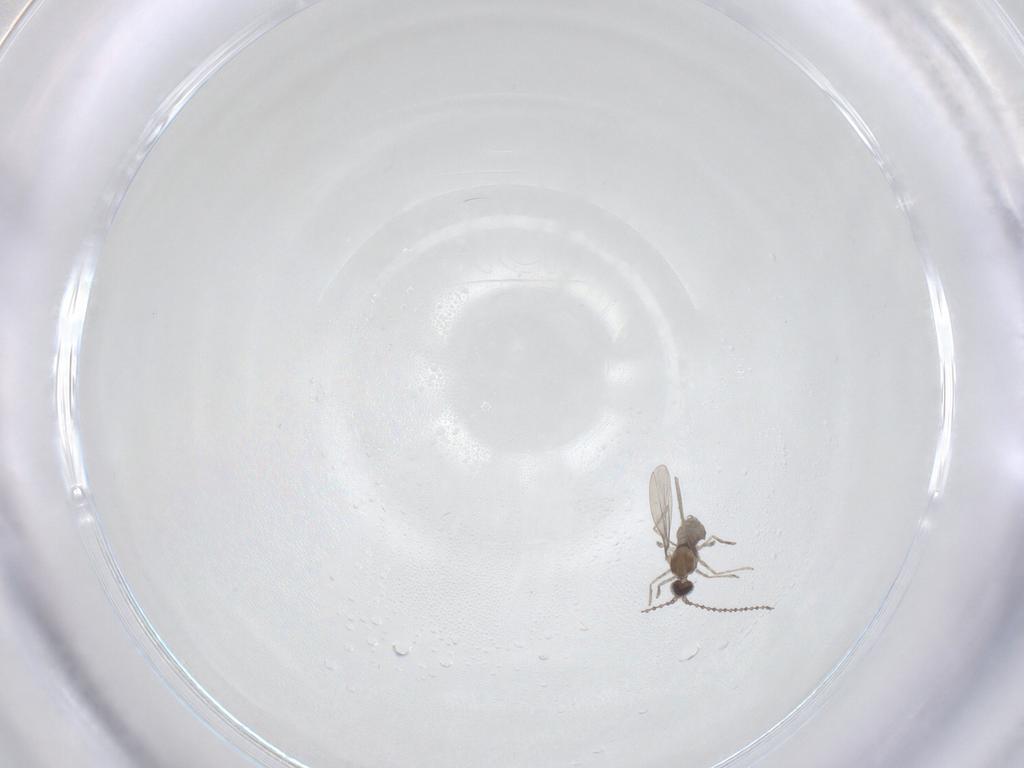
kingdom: Animalia
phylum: Arthropoda
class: Insecta
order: Diptera
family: Cecidomyiidae
